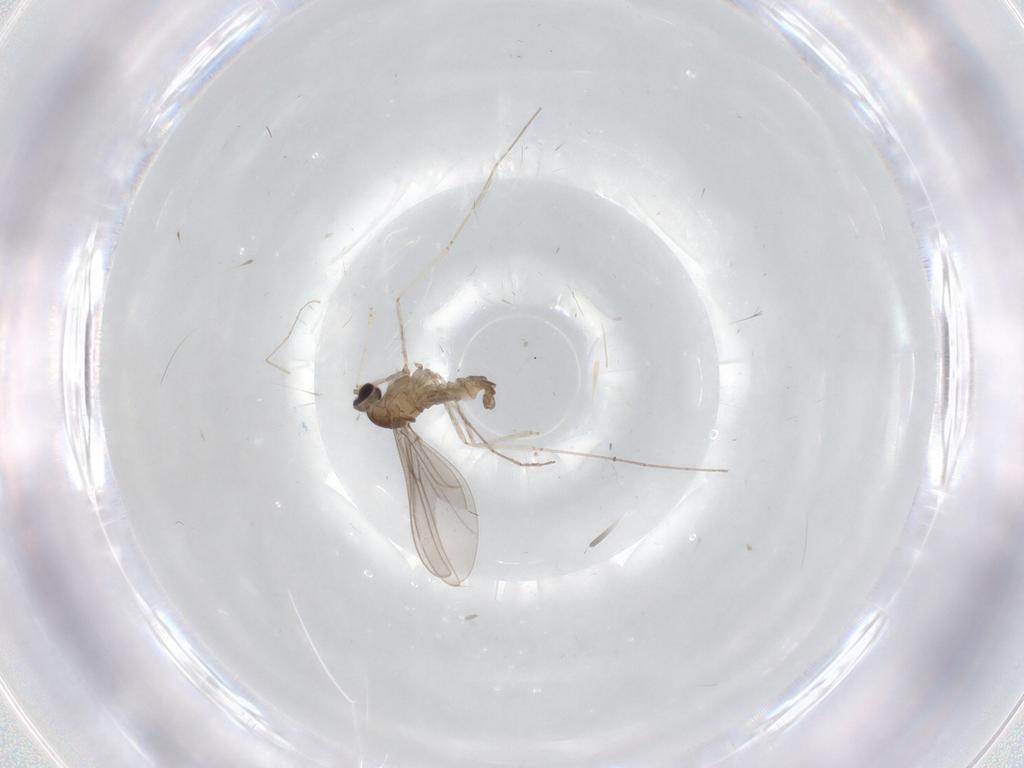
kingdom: Animalia
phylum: Arthropoda
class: Insecta
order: Diptera
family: Cecidomyiidae
